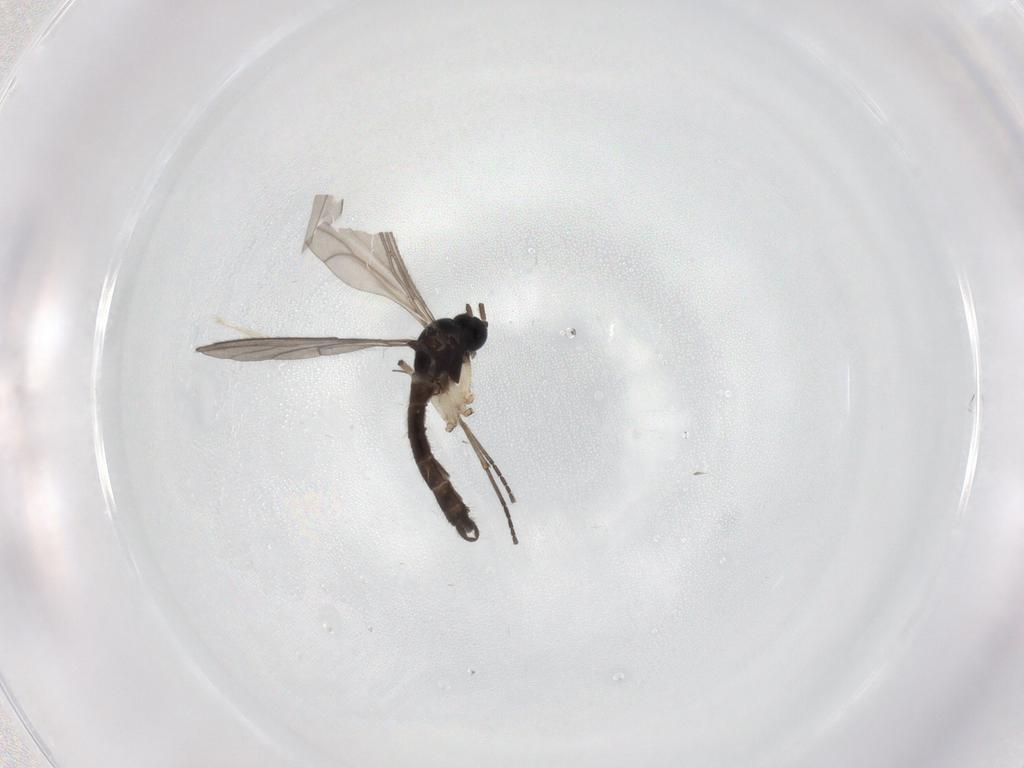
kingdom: Animalia
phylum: Arthropoda
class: Insecta
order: Diptera
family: Sciaridae
